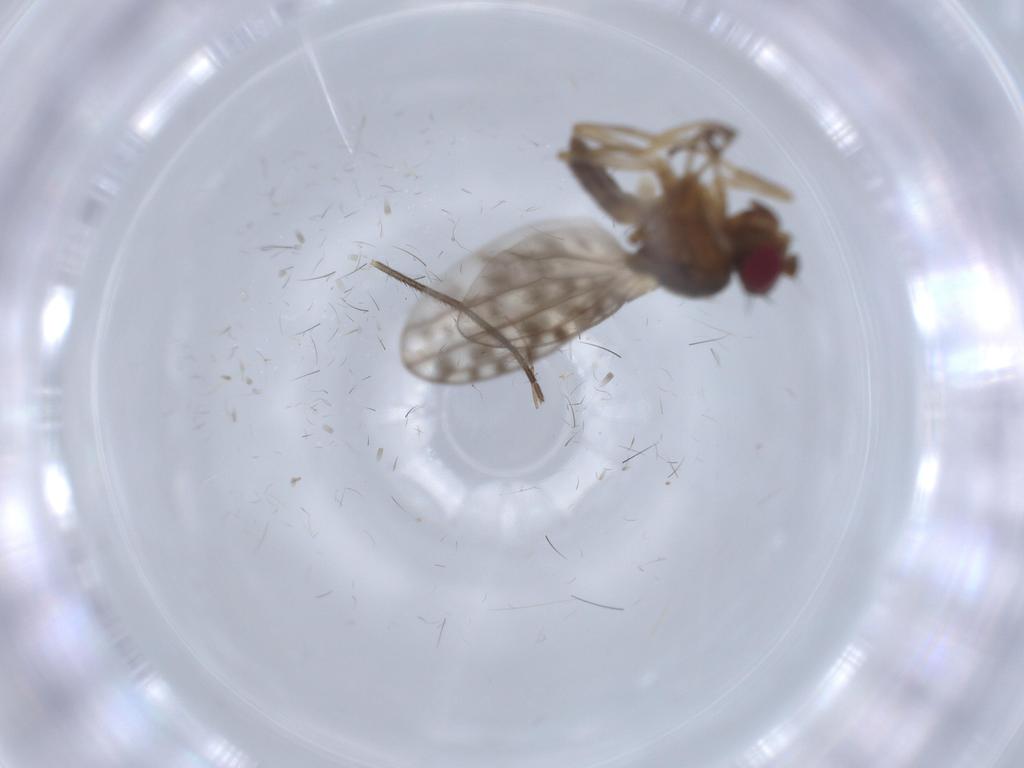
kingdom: Animalia
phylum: Arthropoda
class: Insecta
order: Diptera
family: Ephydridae
